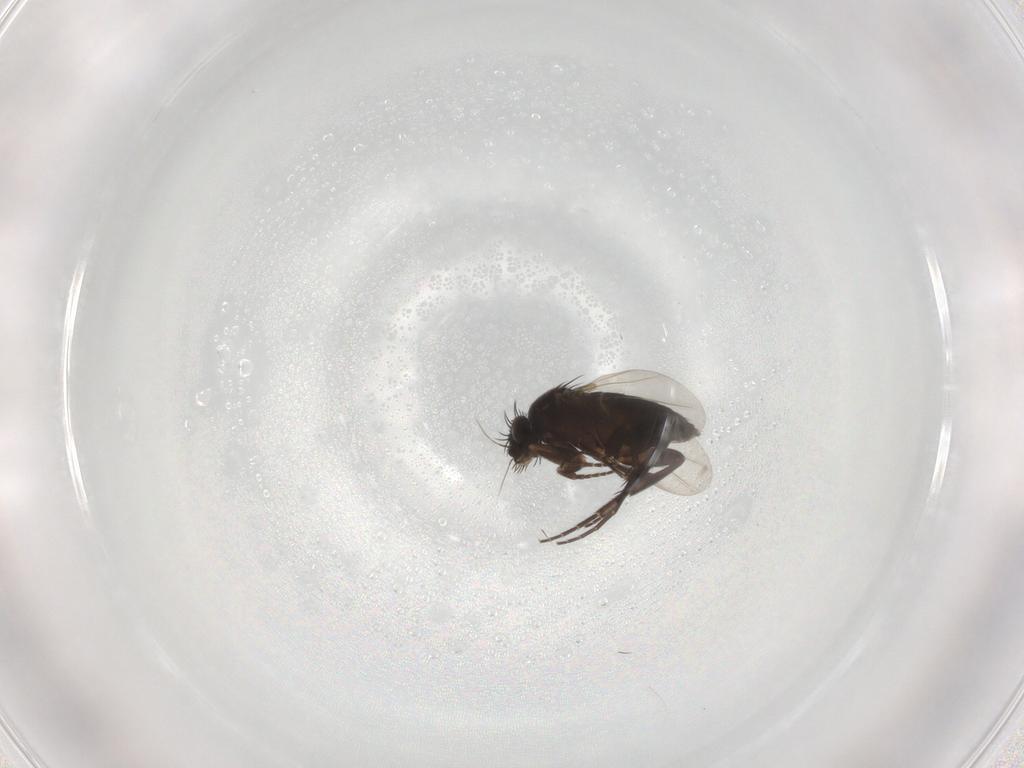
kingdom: Animalia
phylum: Arthropoda
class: Insecta
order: Diptera
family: Phoridae
